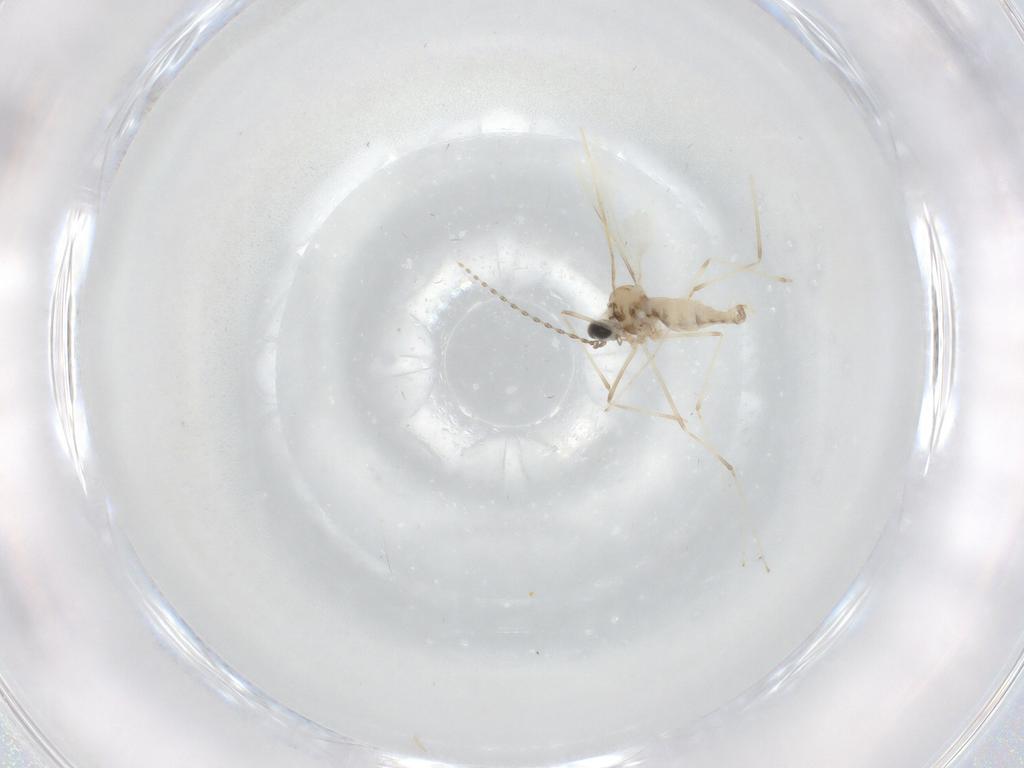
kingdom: Animalia
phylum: Arthropoda
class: Insecta
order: Diptera
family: Cecidomyiidae
